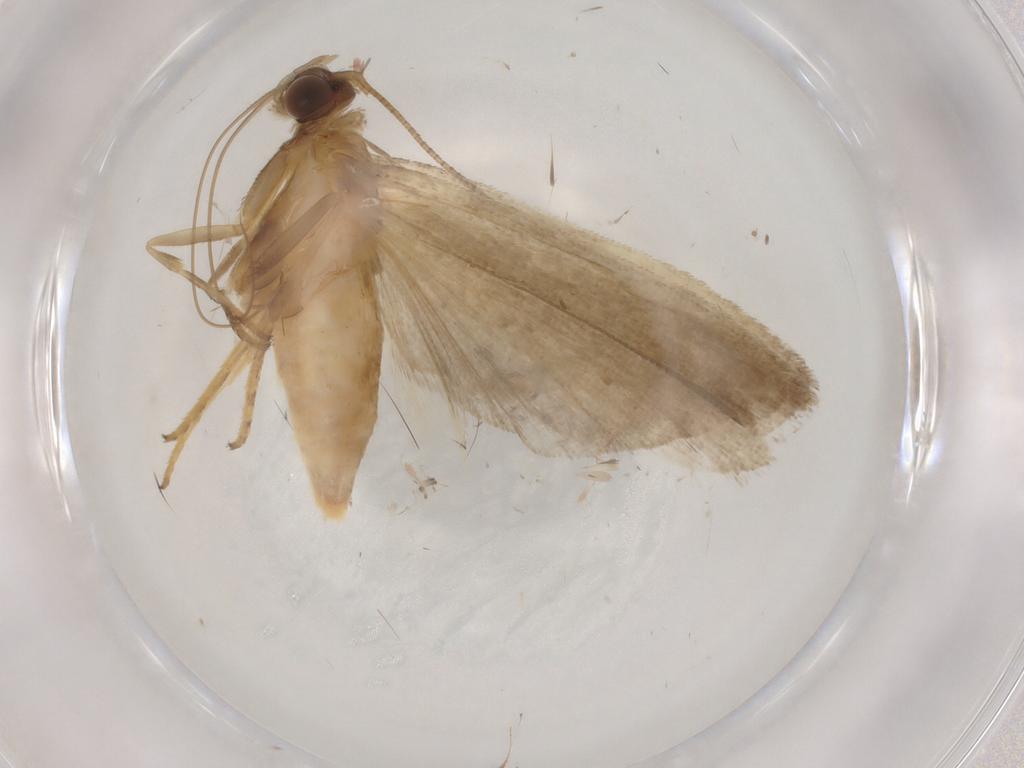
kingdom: Animalia
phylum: Arthropoda
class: Insecta
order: Lepidoptera
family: Noctuidae
